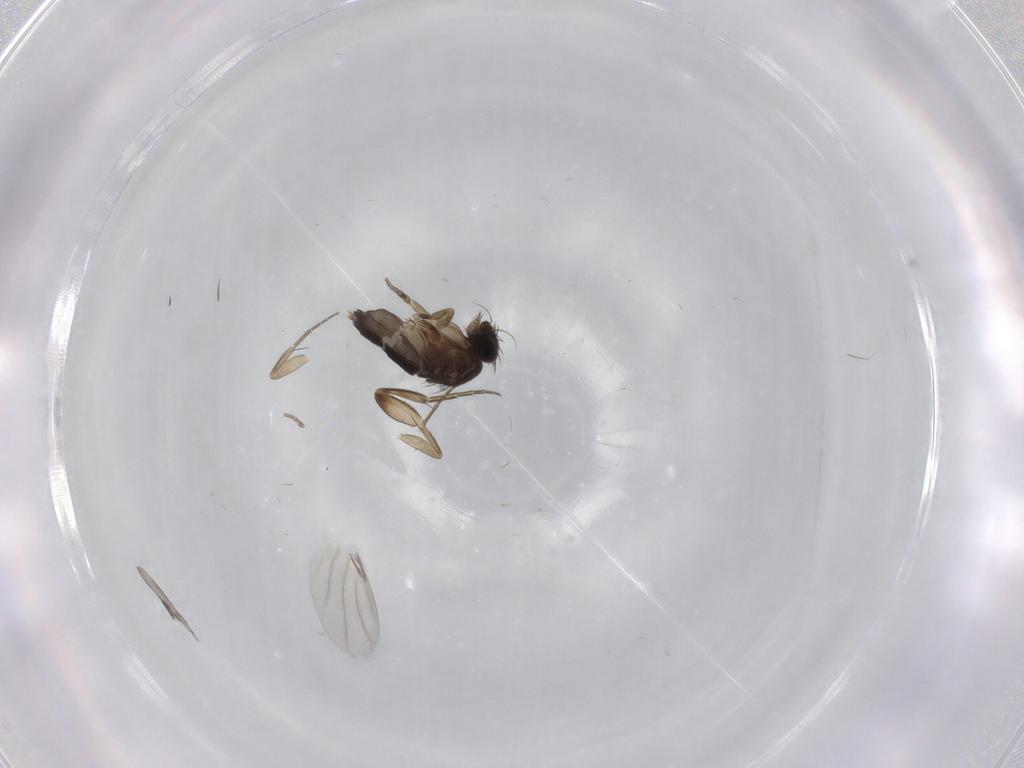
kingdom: Animalia
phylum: Arthropoda
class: Insecta
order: Diptera
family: Phoridae
